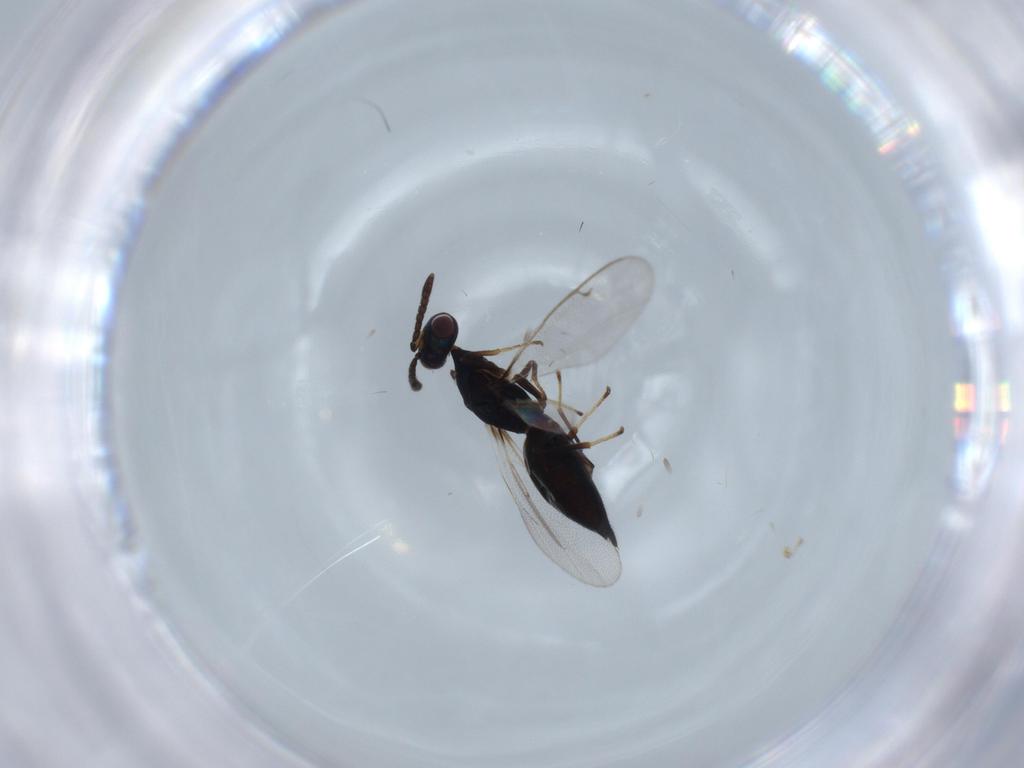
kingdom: Animalia
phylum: Arthropoda
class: Insecta
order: Hymenoptera
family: Pteromalidae
